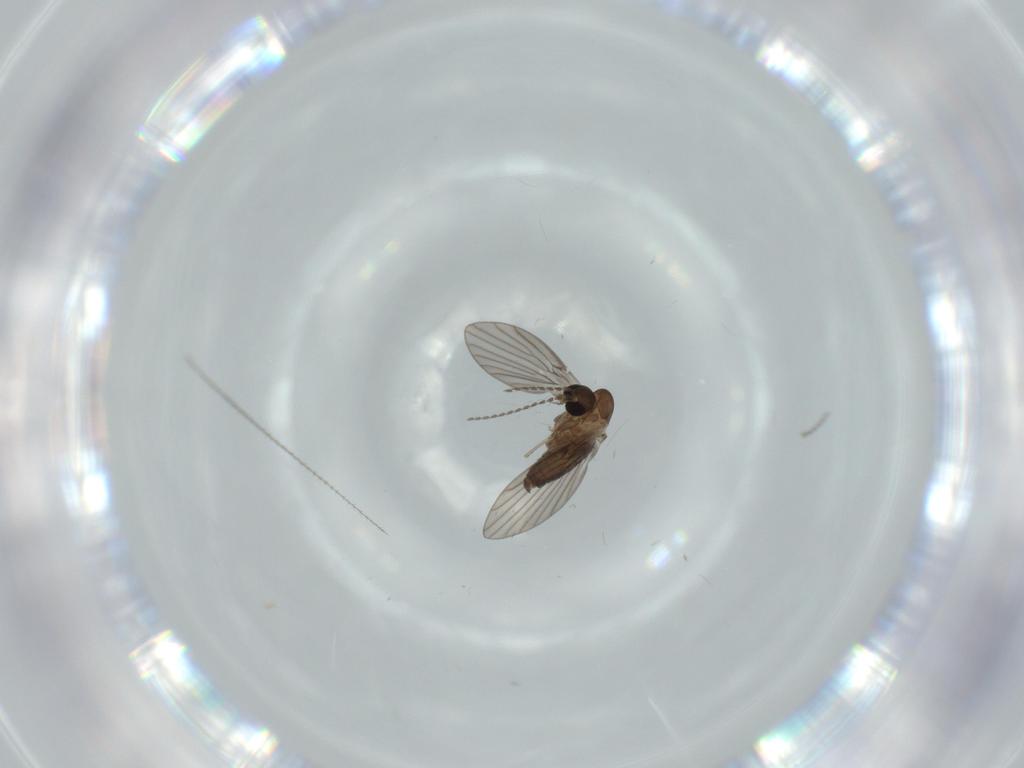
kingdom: Animalia
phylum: Arthropoda
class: Insecta
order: Diptera
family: Psychodidae
